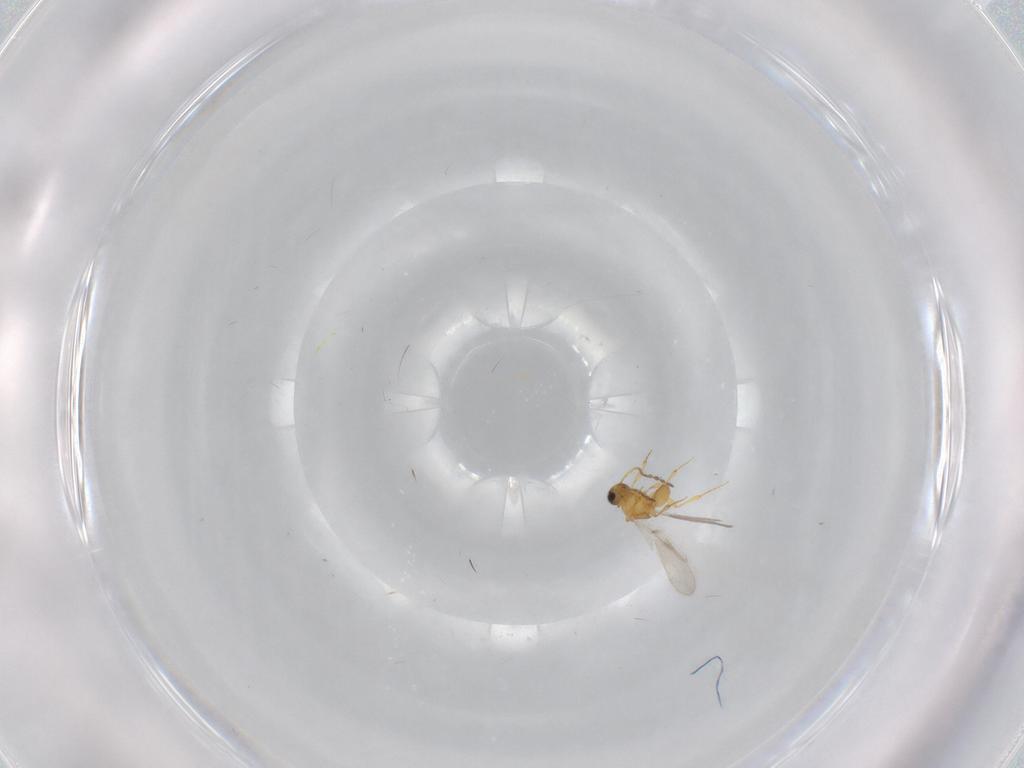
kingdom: Animalia
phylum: Arthropoda
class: Insecta
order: Hymenoptera
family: Platygastridae
